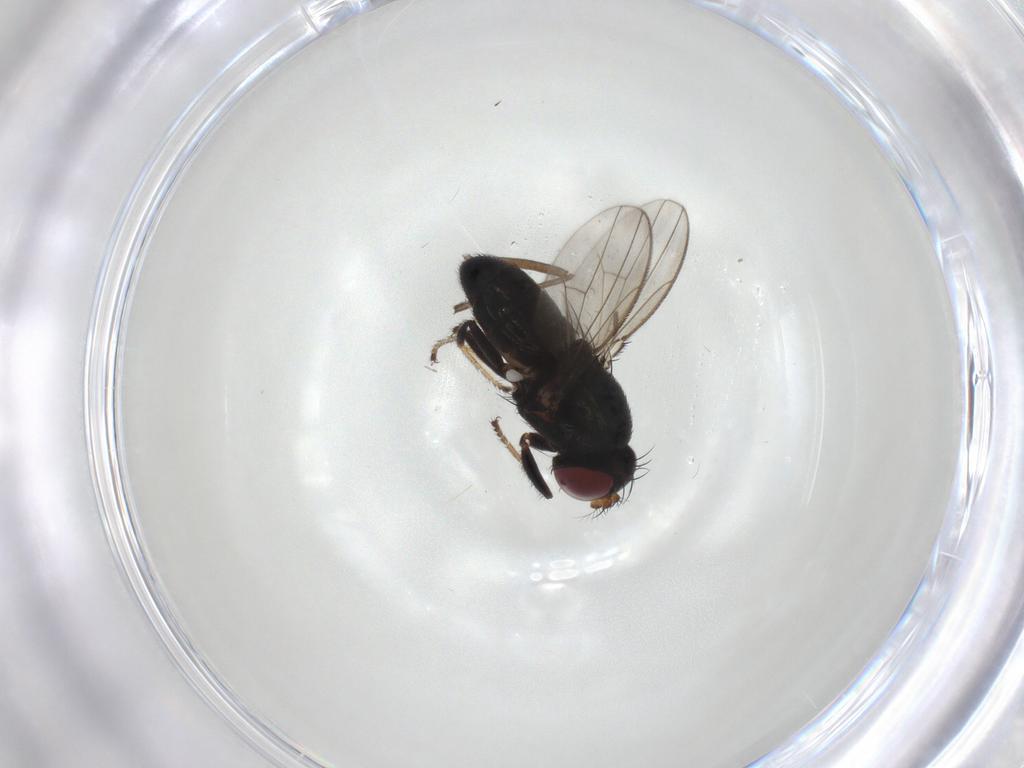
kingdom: Animalia
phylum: Arthropoda
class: Insecta
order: Diptera
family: Ephydridae
